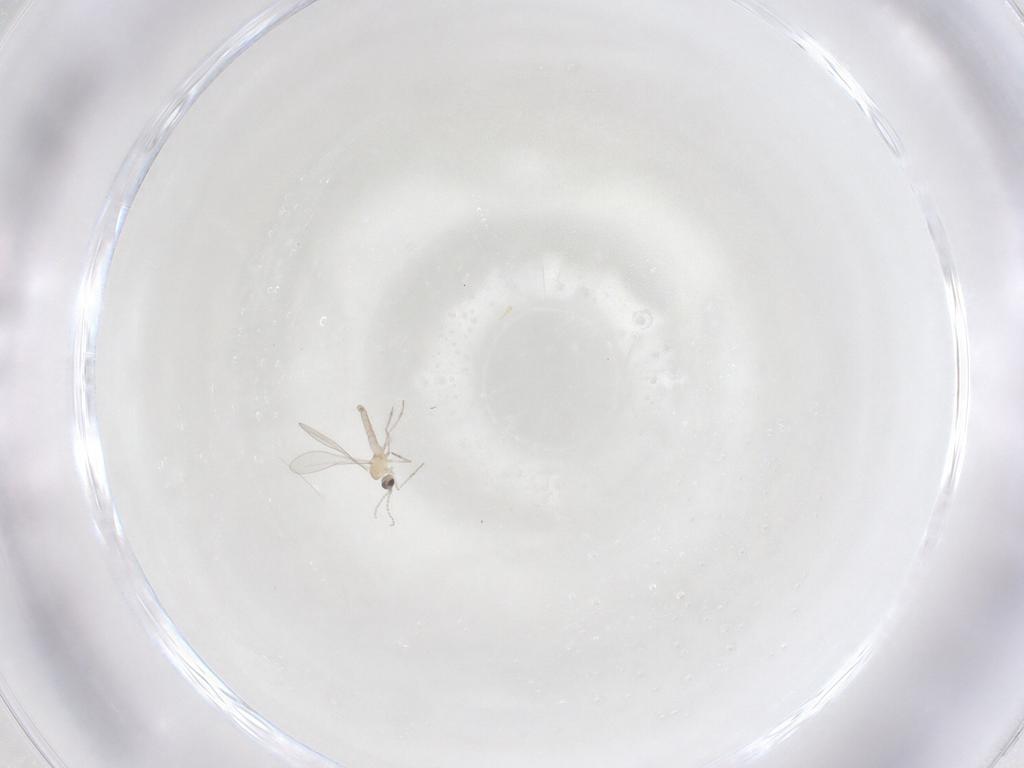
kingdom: Animalia
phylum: Arthropoda
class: Insecta
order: Diptera
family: Cecidomyiidae
